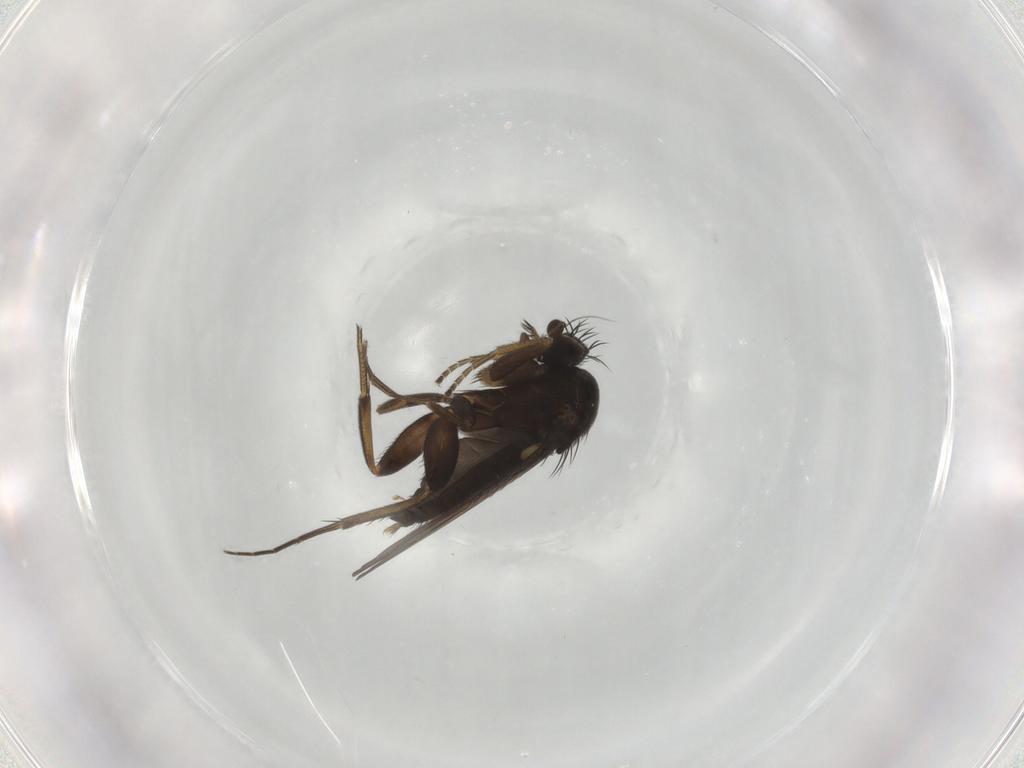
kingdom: Animalia
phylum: Arthropoda
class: Insecta
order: Diptera
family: Phoridae
